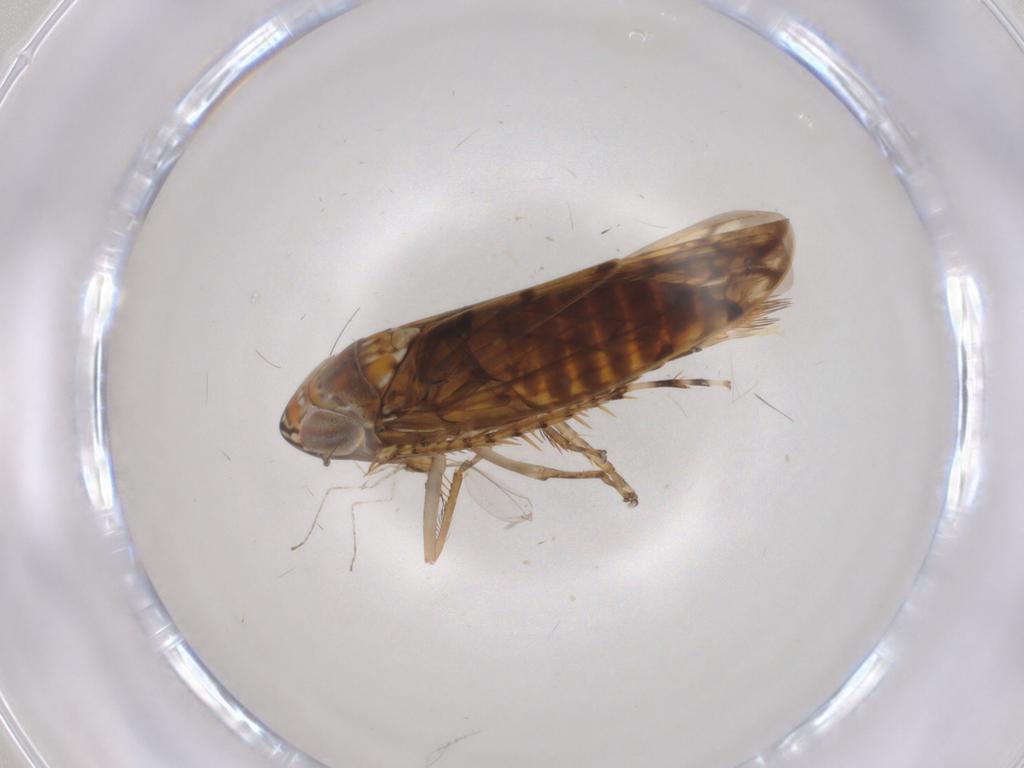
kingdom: Animalia
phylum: Arthropoda
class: Insecta
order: Hemiptera
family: Cicadellidae
